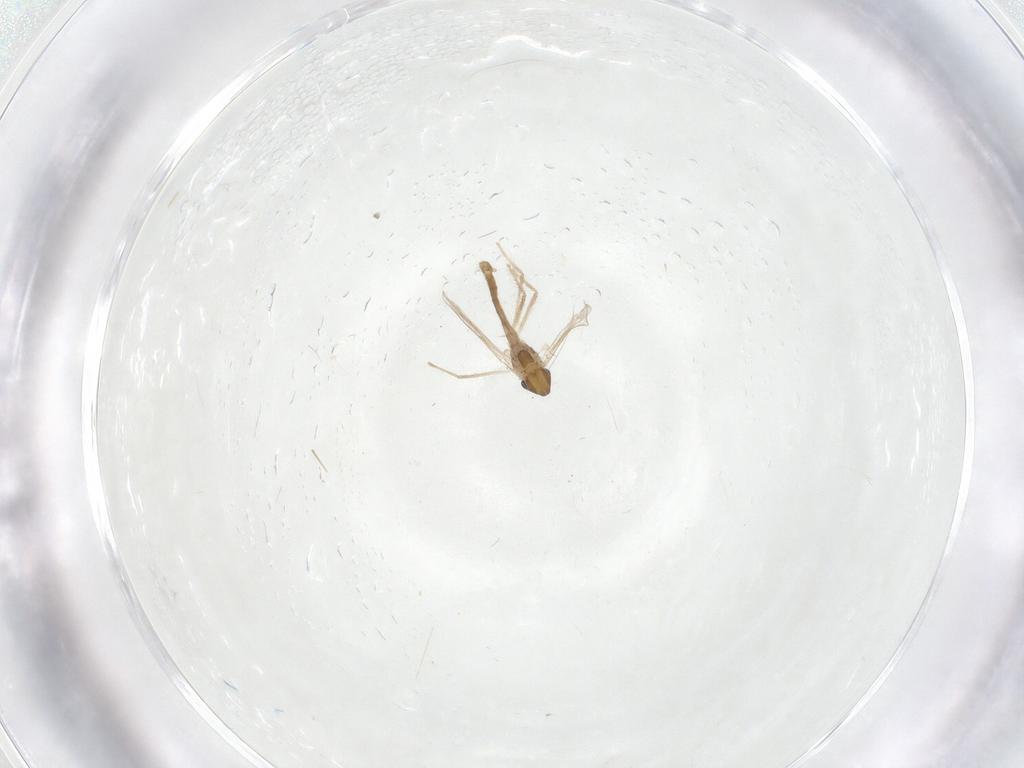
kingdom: Animalia
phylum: Arthropoda
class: Insecta
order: Diptera
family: Chironomidae
